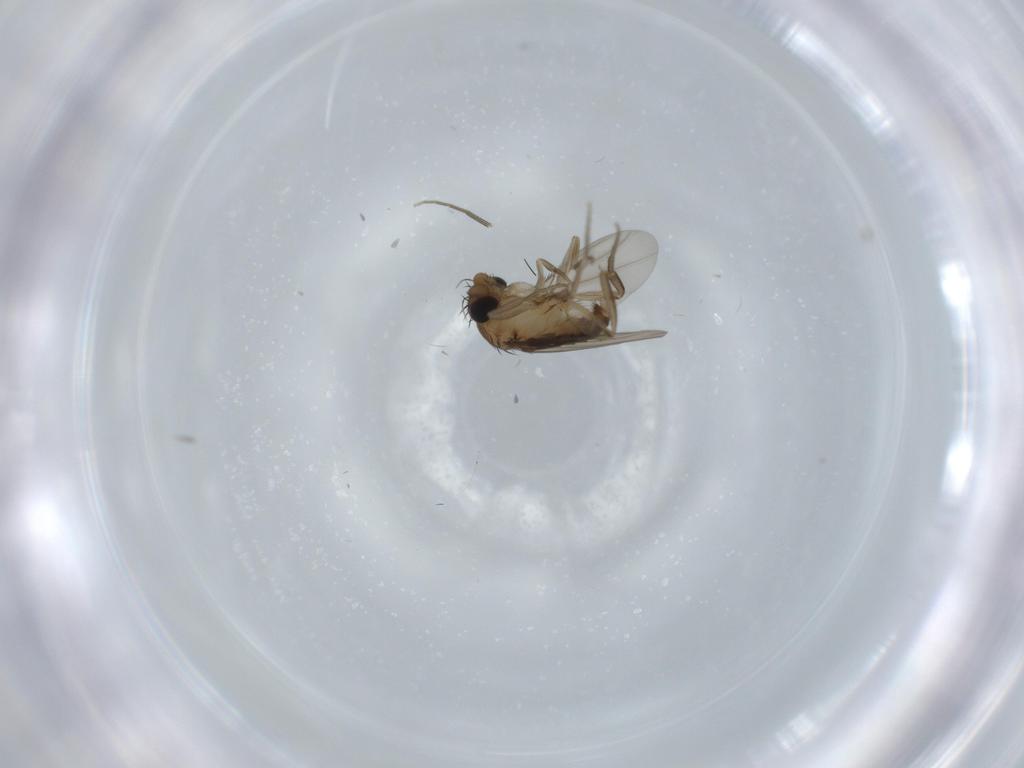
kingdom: Animalia
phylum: Arthropoda
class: Insecta
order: Diptera
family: Phoridae
